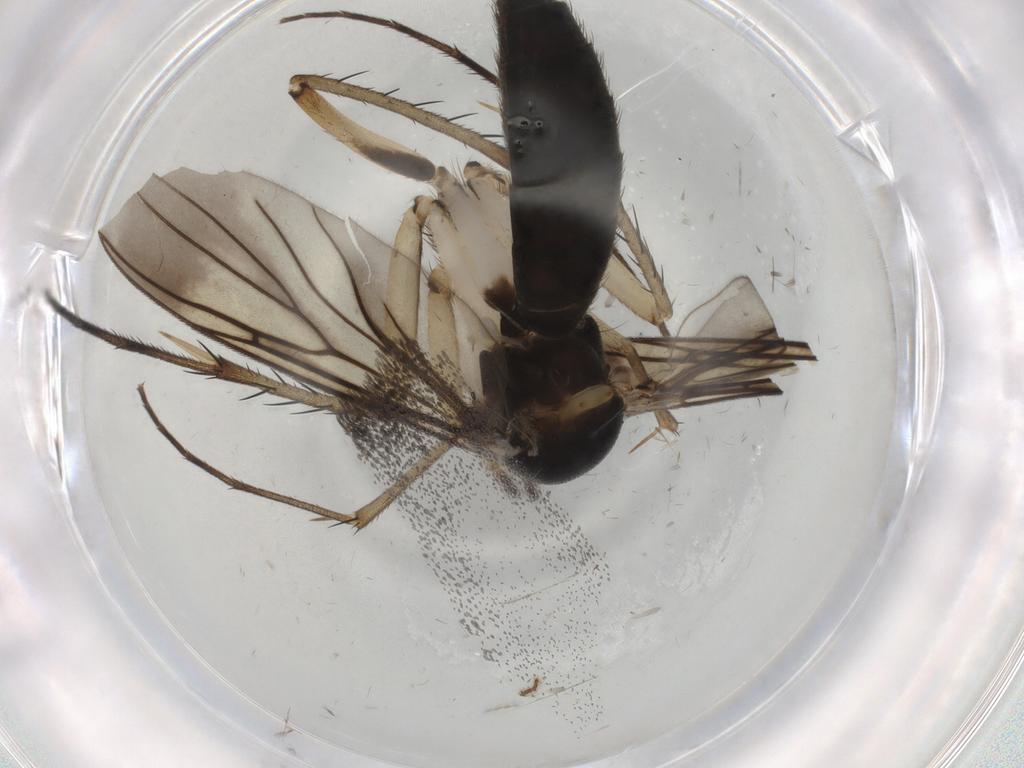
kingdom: Animalia
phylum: Arthropoda
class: Insecta
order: Diptera
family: Mycetophilidae
